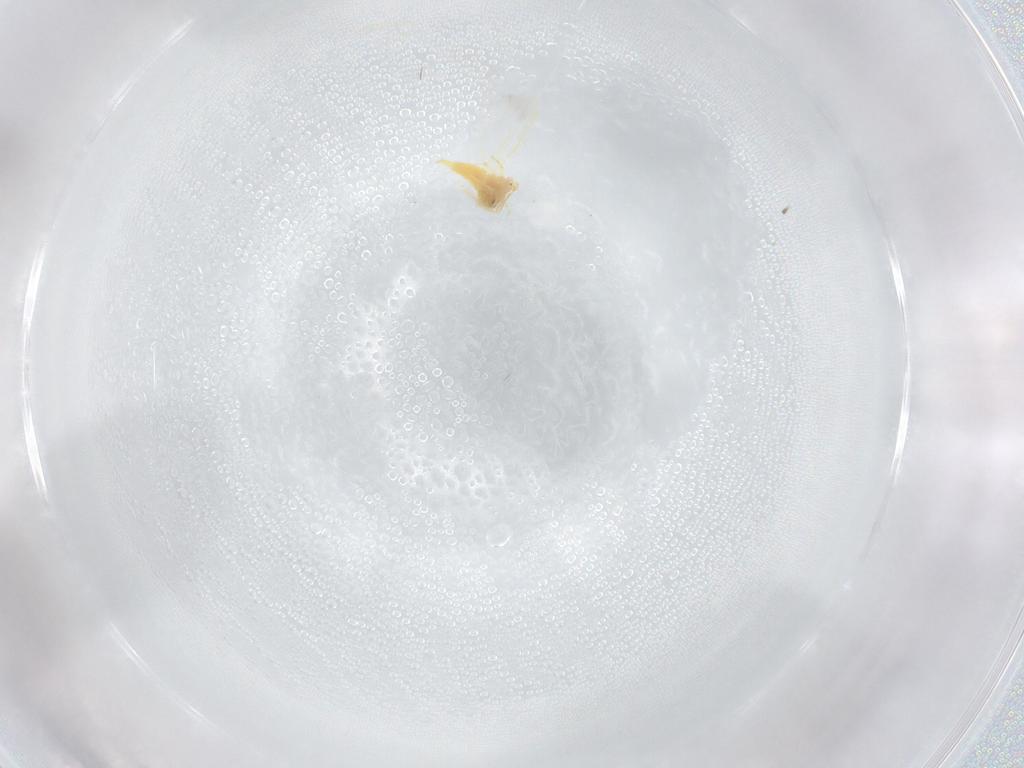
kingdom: Animalia
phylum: Arthropoda
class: Insecta
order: Hemiptera
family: Aleyrodidae
